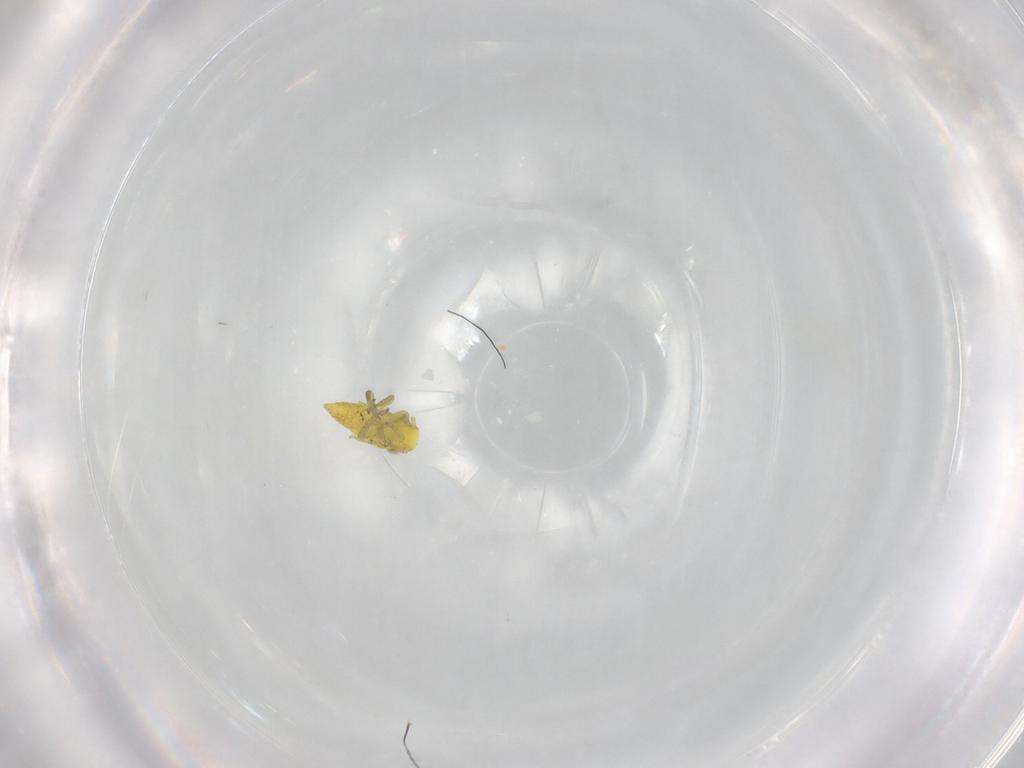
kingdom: Animalia
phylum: Arthropoda
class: Insecta
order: Hemiptera
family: Cicadellidae
